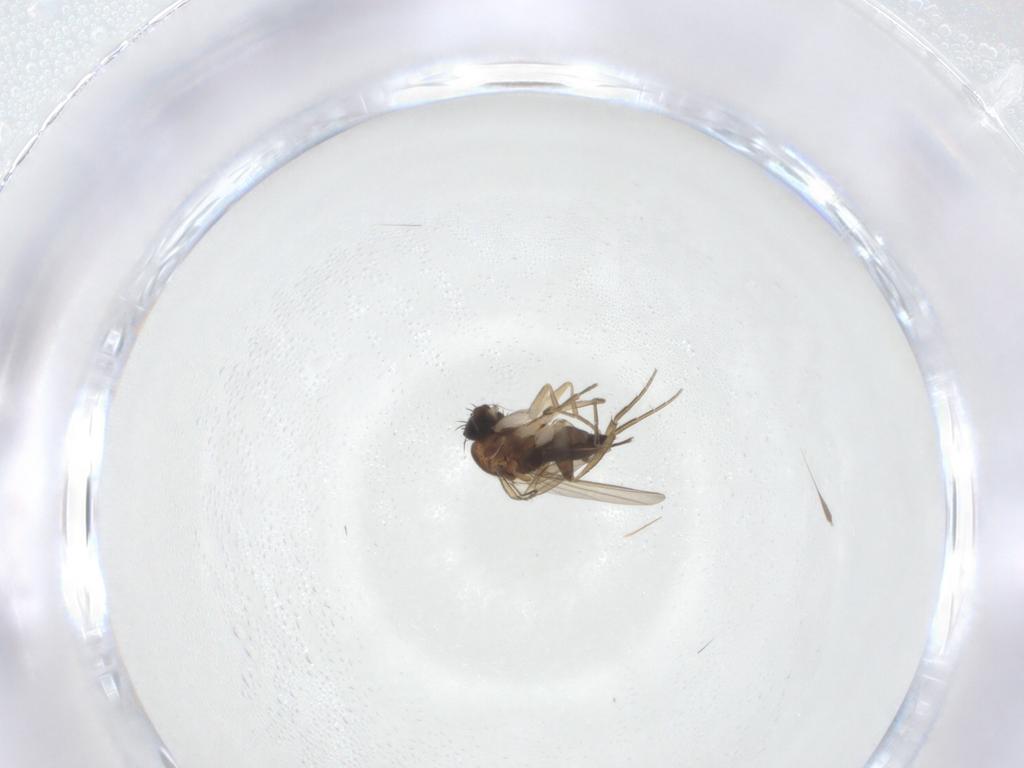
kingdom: Animalia
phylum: Arthropoda
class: Insecta
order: Diptera
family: Phoridae
